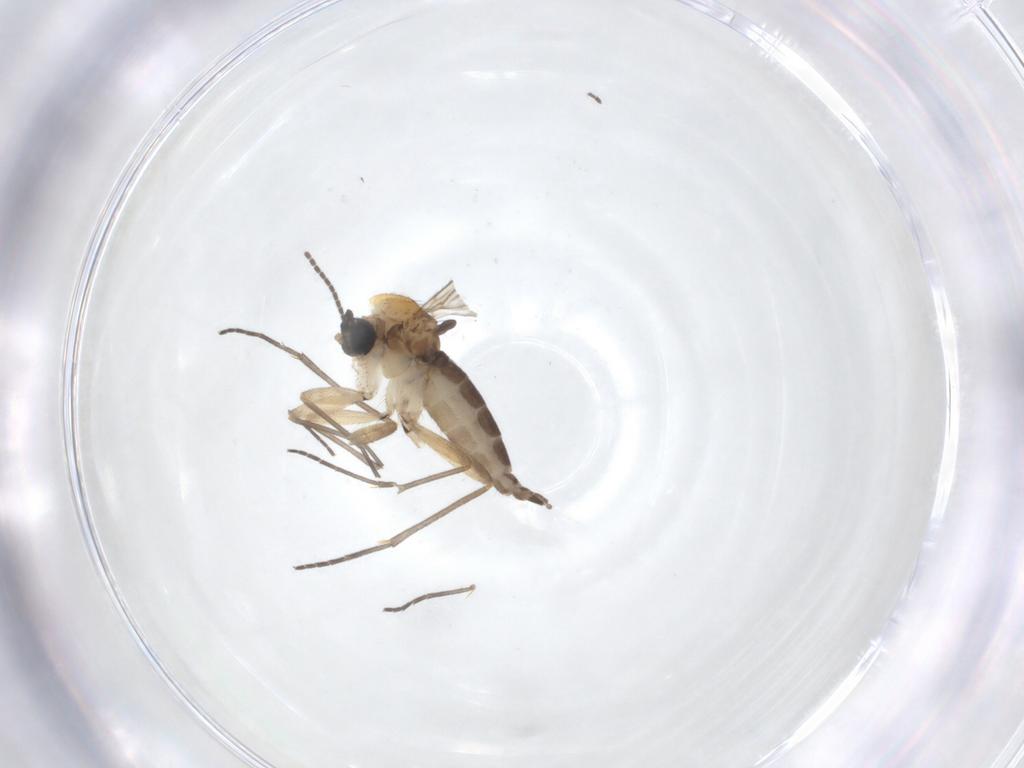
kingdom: Animalia
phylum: Arthropoda
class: Insecta
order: Diptera
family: Sciaridae
